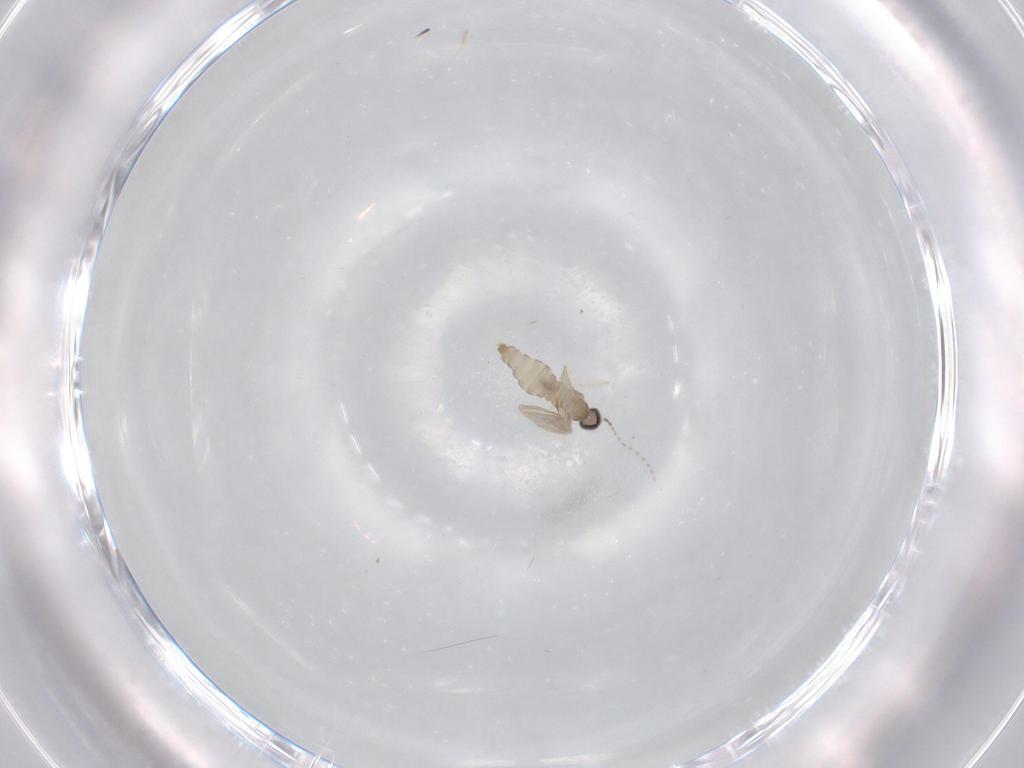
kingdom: Animalia
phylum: Arthropoda
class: Insecta
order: Diptera
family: Cecidomyiidae
